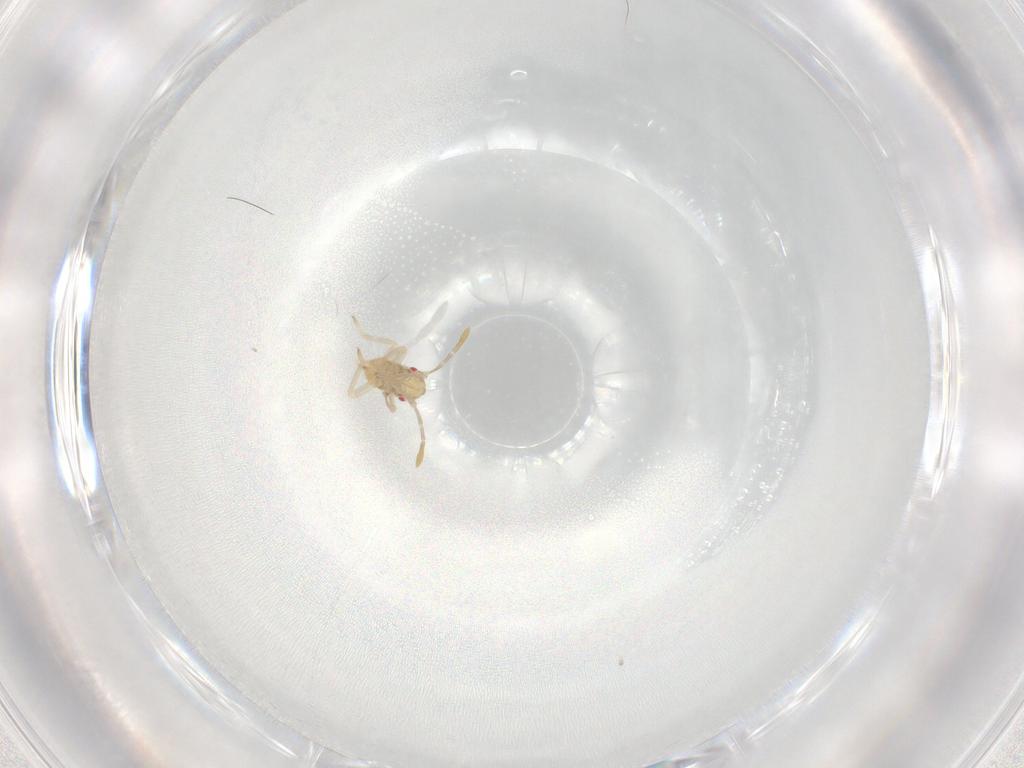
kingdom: Animalia
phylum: Arthropoda
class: Insecta
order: Hemiptera
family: Miridae
